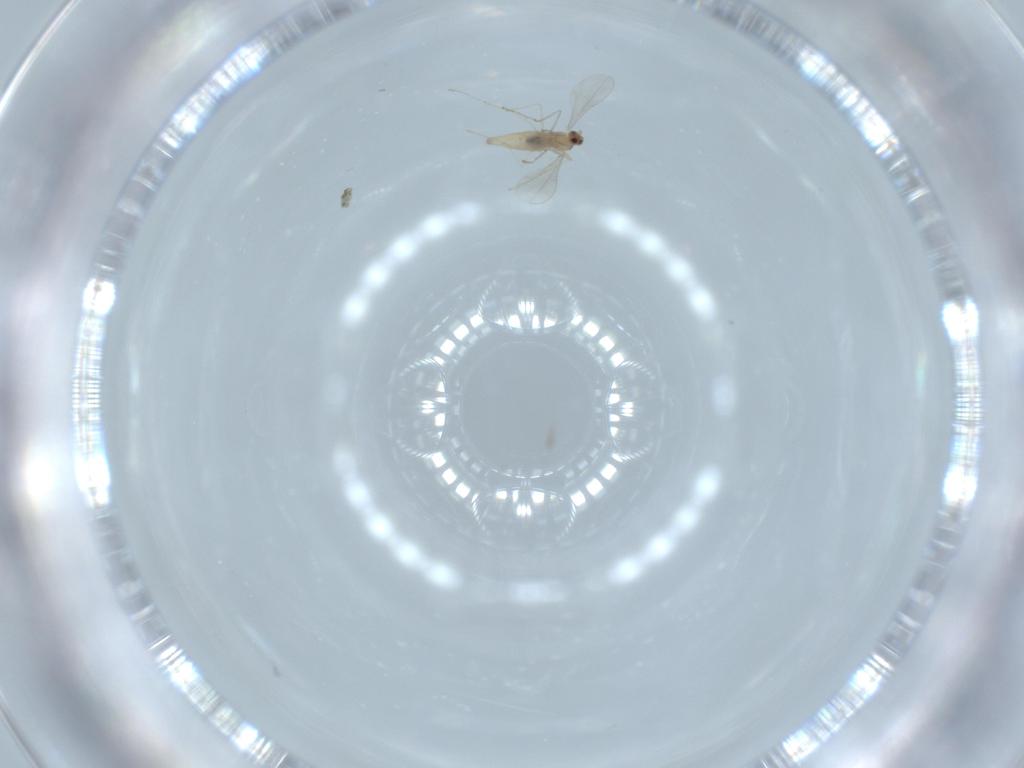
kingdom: Animalia
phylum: Arthropoda
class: Insecta
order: Diptera
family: Cecidomyiidae
